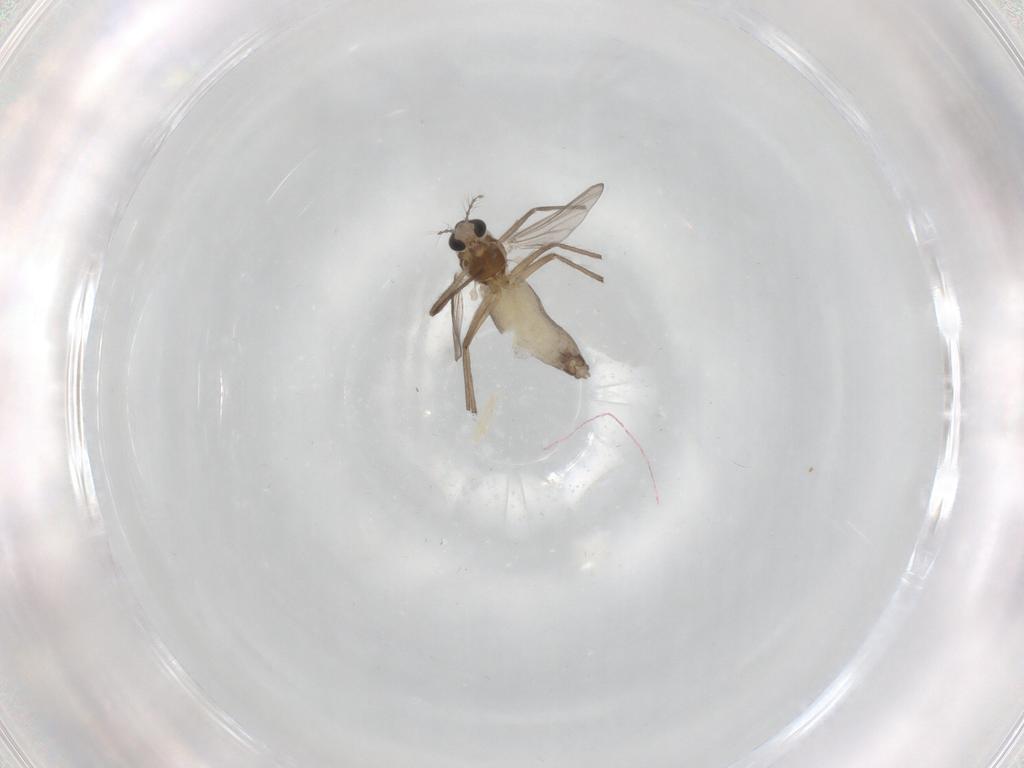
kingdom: Animalia
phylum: Arthropoda
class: Insecta
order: Diptera
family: Chironomidae
